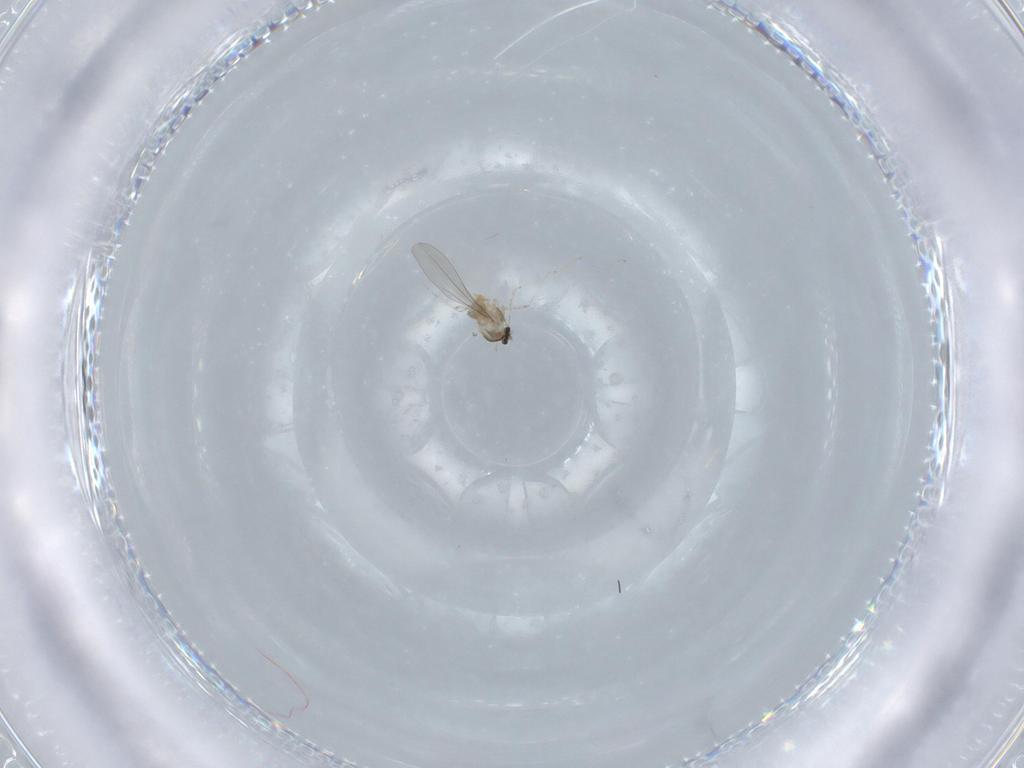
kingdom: Animalia
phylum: Arthropoda
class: Insecta
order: Diptera
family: Cecidomyiidae
